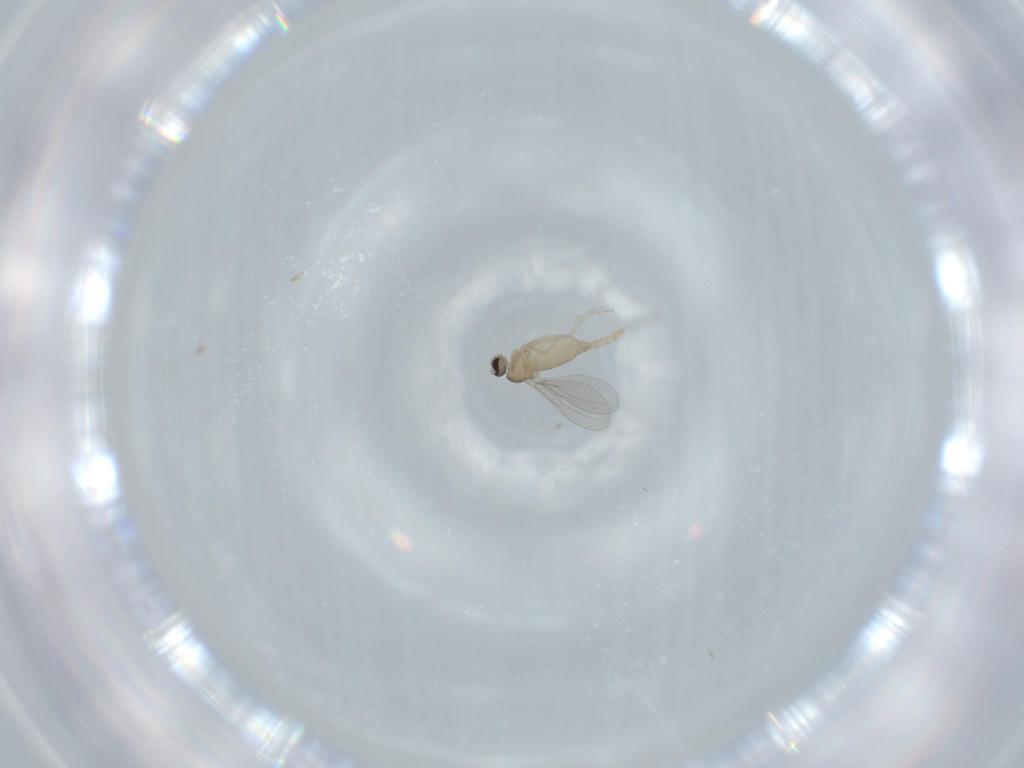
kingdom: Animalia
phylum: Arthropoda
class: Insecta
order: Diptera
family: Cecidomyiidae
